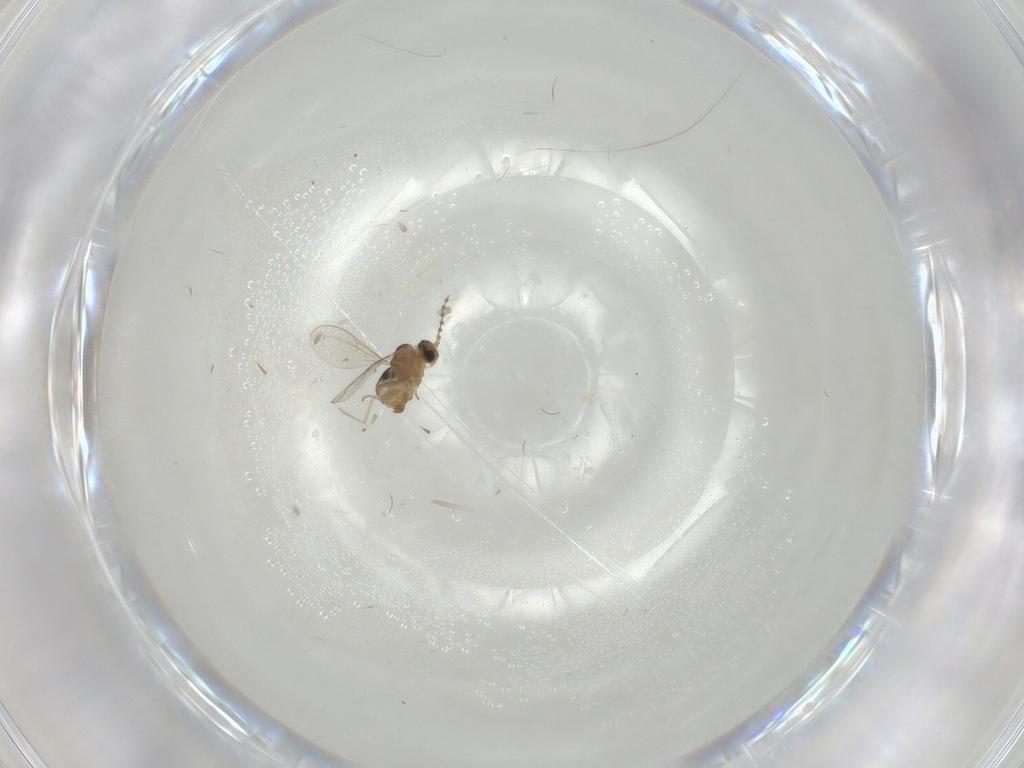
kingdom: Animalia
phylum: Arthropoda
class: Insecta
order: Diptera
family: Cecidomyiidae
